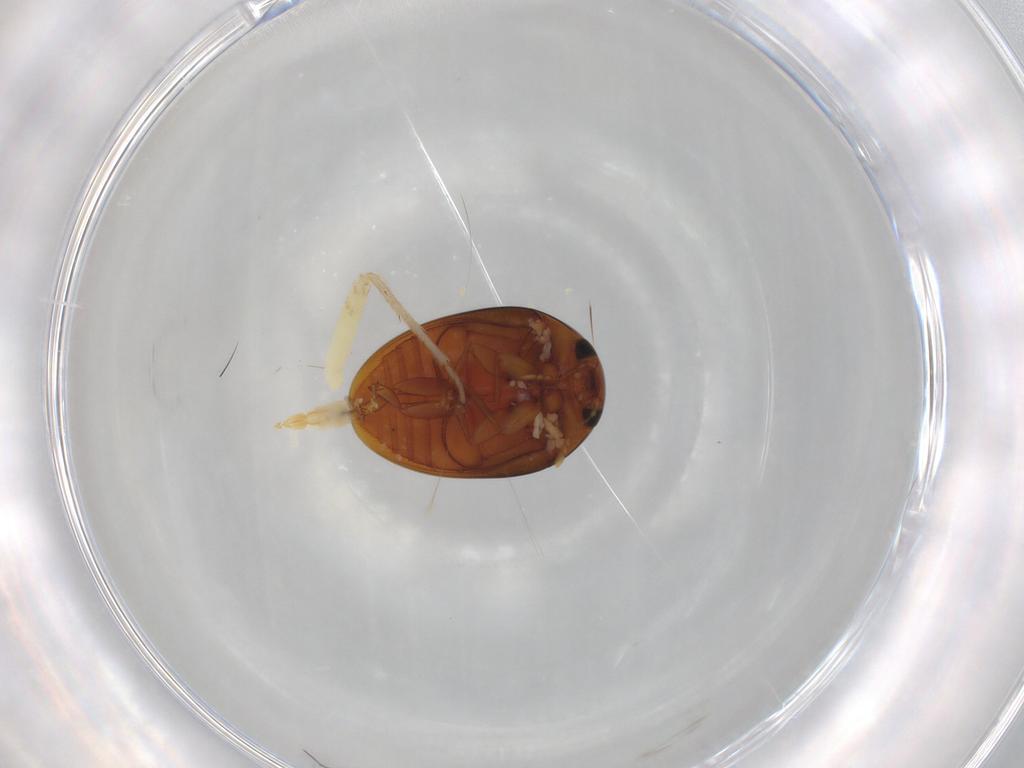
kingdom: Animalia
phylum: Arthropoda
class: Insecta
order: Coleoptera
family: Phalacridae
